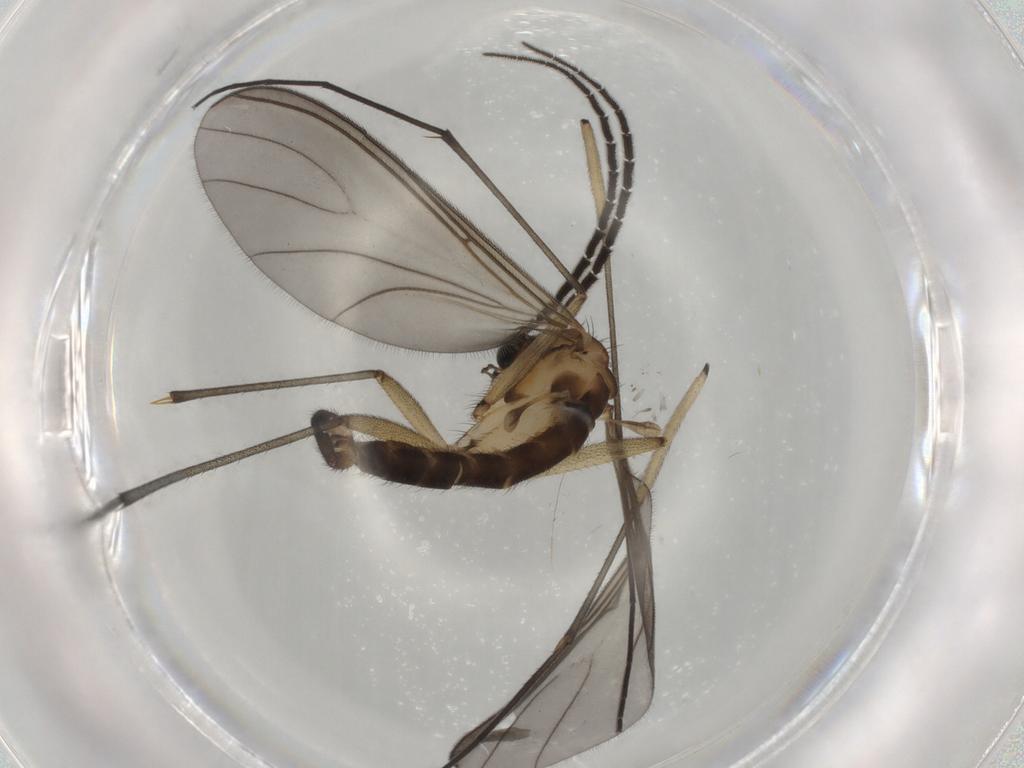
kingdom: Animalia
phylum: Arthropoda
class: Insecta
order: Diptera
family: Sciaridae
